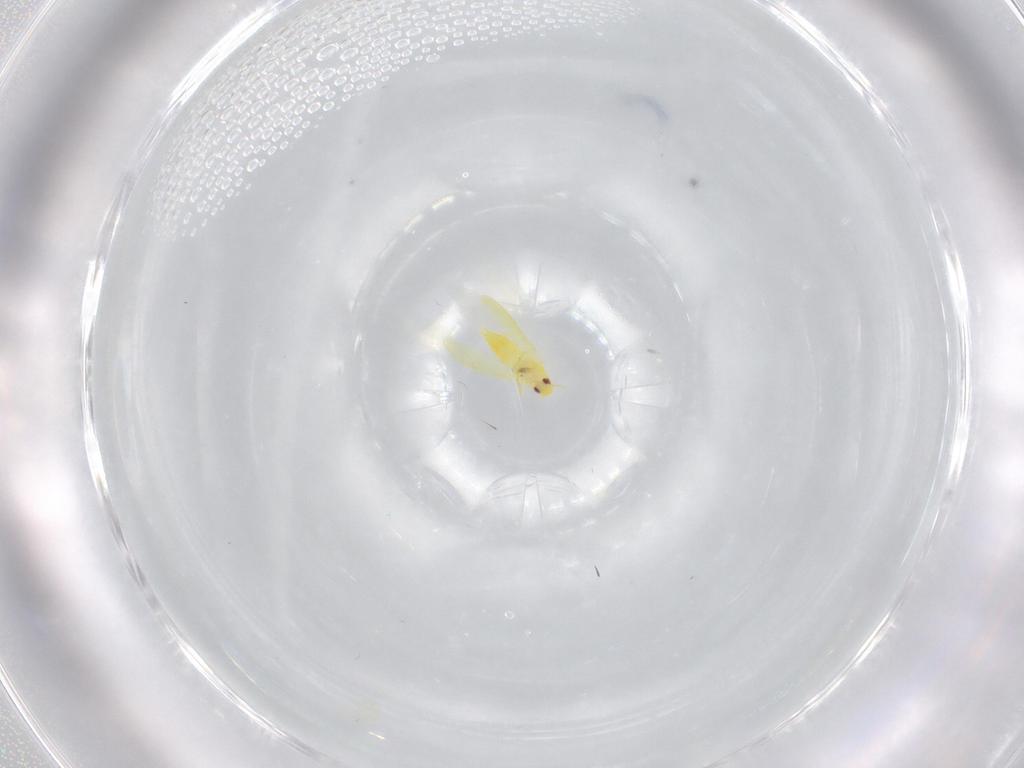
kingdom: Animalia
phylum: Arthropoda
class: Insecta
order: Hemiptera
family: Aleyrodidae
